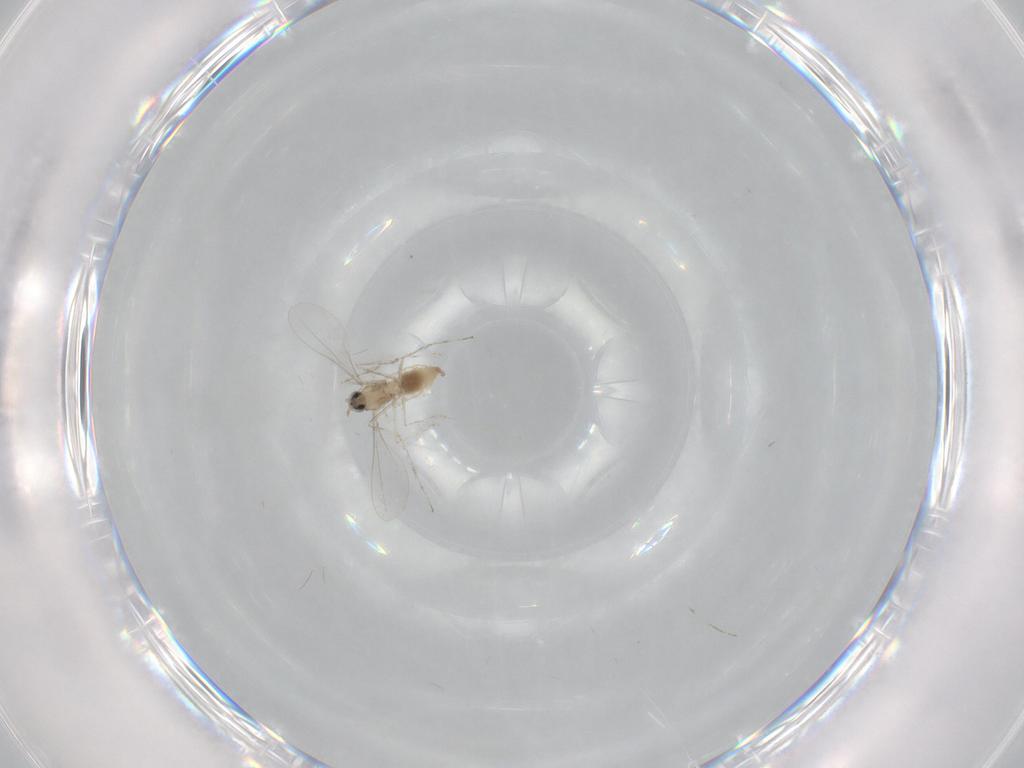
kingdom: Animalia
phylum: Arthropoda
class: Insecta
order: Diptera
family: Cecidomyiidae
